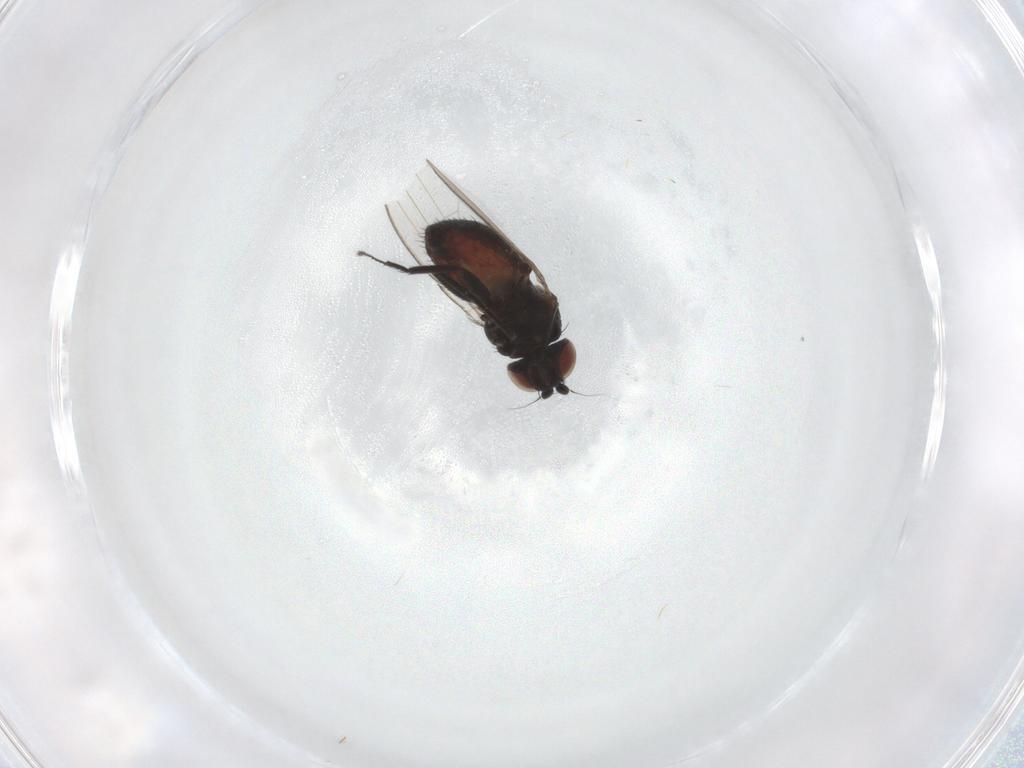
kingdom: Animalia
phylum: Arthropoda
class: Insecta
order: Diptera
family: Milichiidae
